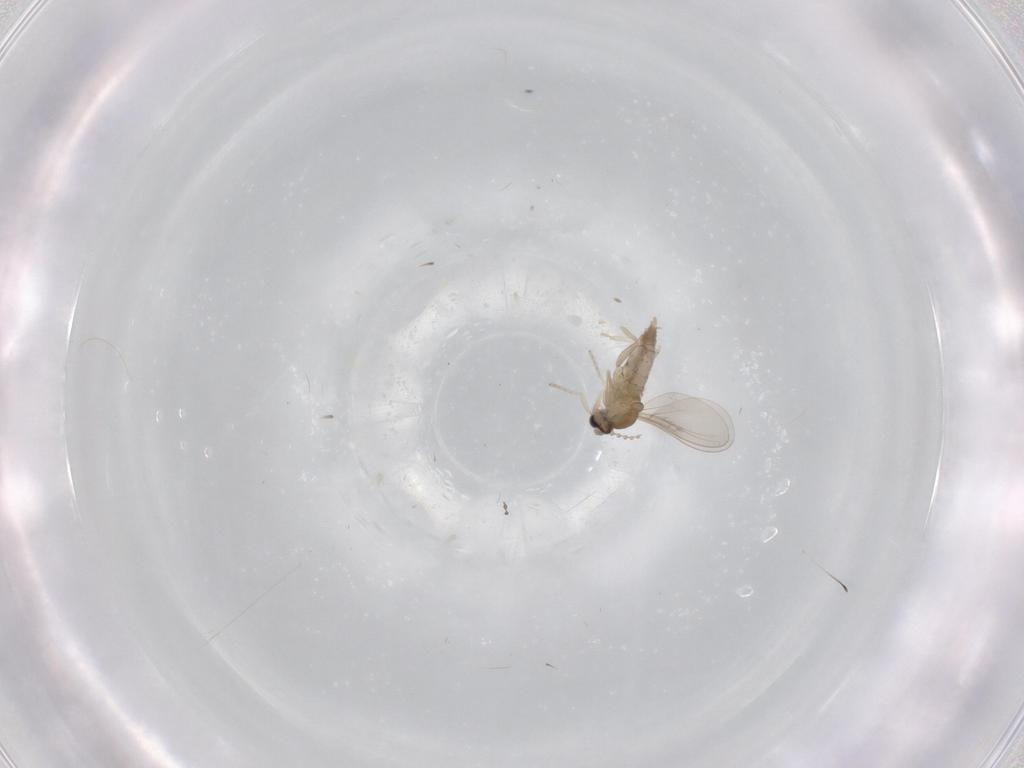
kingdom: Animalia
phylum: Arthropoda
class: Insecta
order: Diptera
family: Cecidomyiidae
